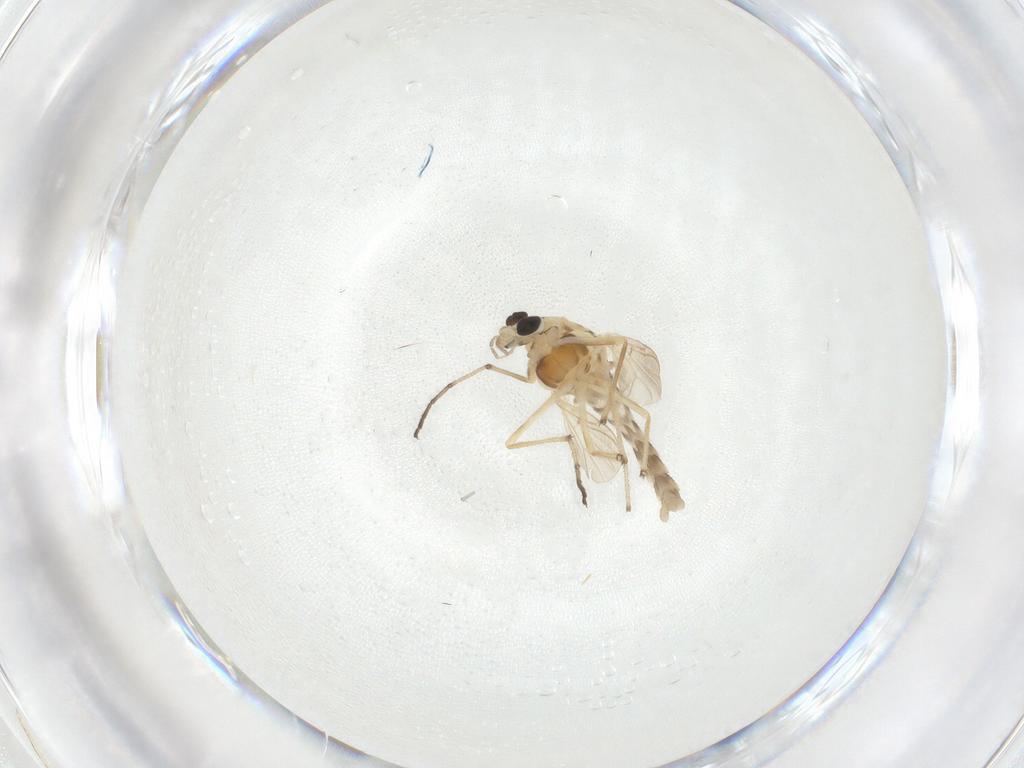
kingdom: Animalia
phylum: Arthropoda
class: Insecta
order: Diptera
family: Chironomidae
